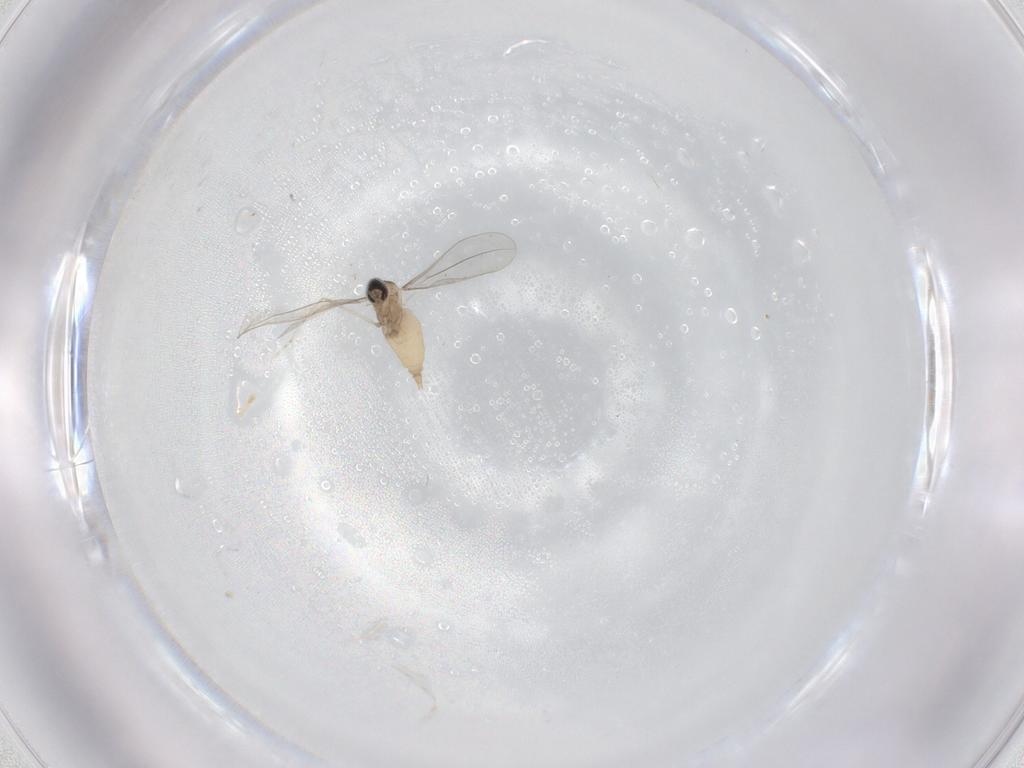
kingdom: Animalia
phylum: Arthropoda
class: Insecta
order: Diptera
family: Cecidomyiidae
